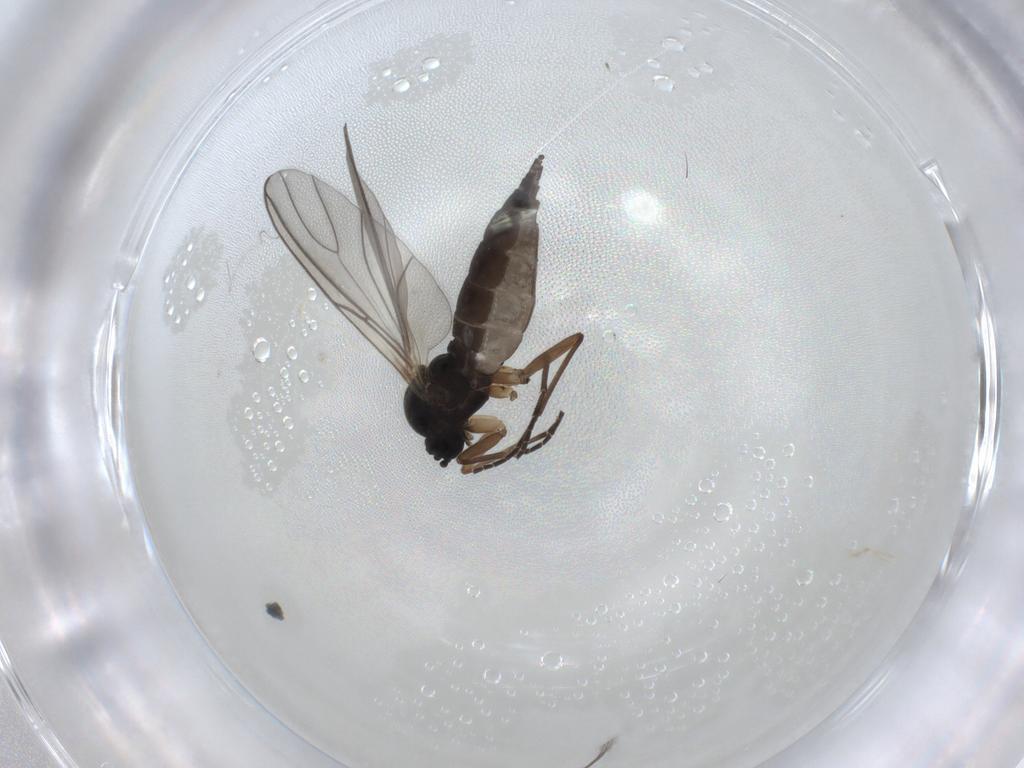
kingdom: Animalia
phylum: Arthropoda
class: Insecta
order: Diptera
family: Sciaridae
